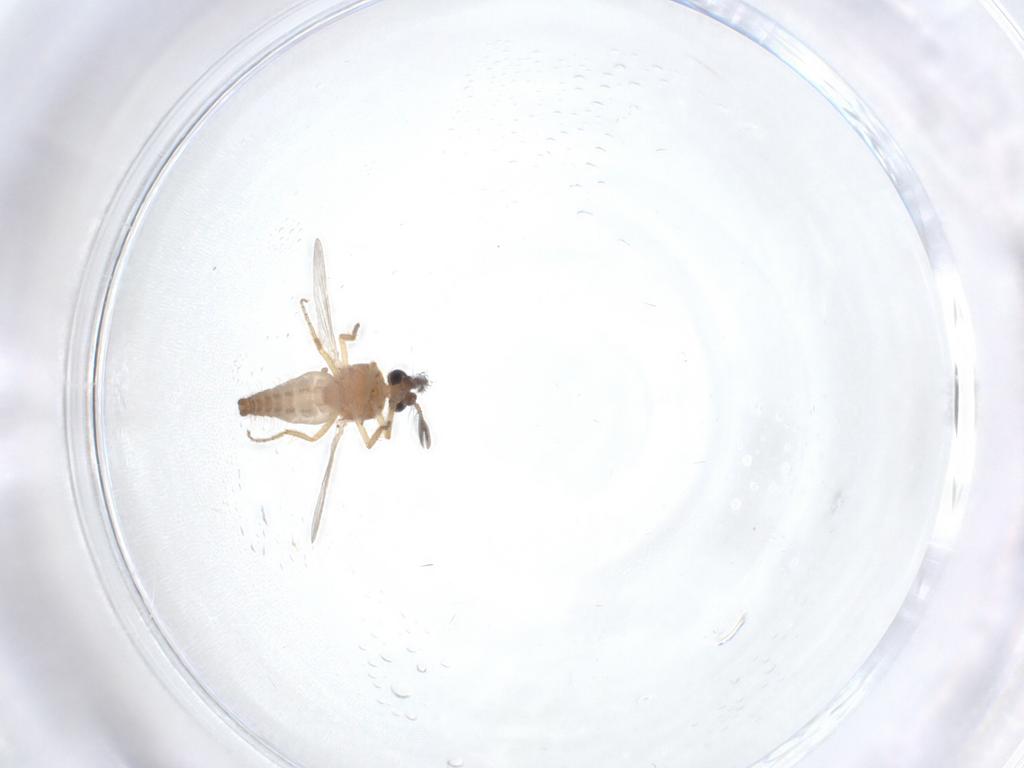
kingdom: Animalia
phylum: Arthropoda
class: Insecta
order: Diptera
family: Ceratopogonidae
